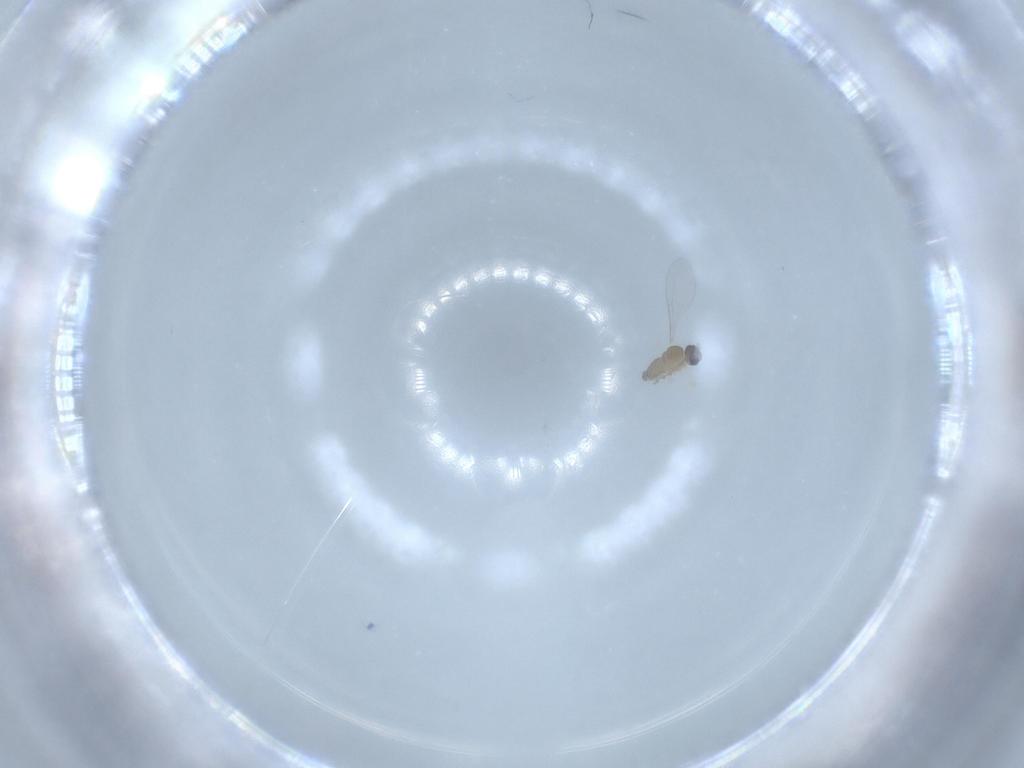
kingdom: Animalia
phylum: Arthropoda
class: Insecta
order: Diptera
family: Cecidomyiidae
